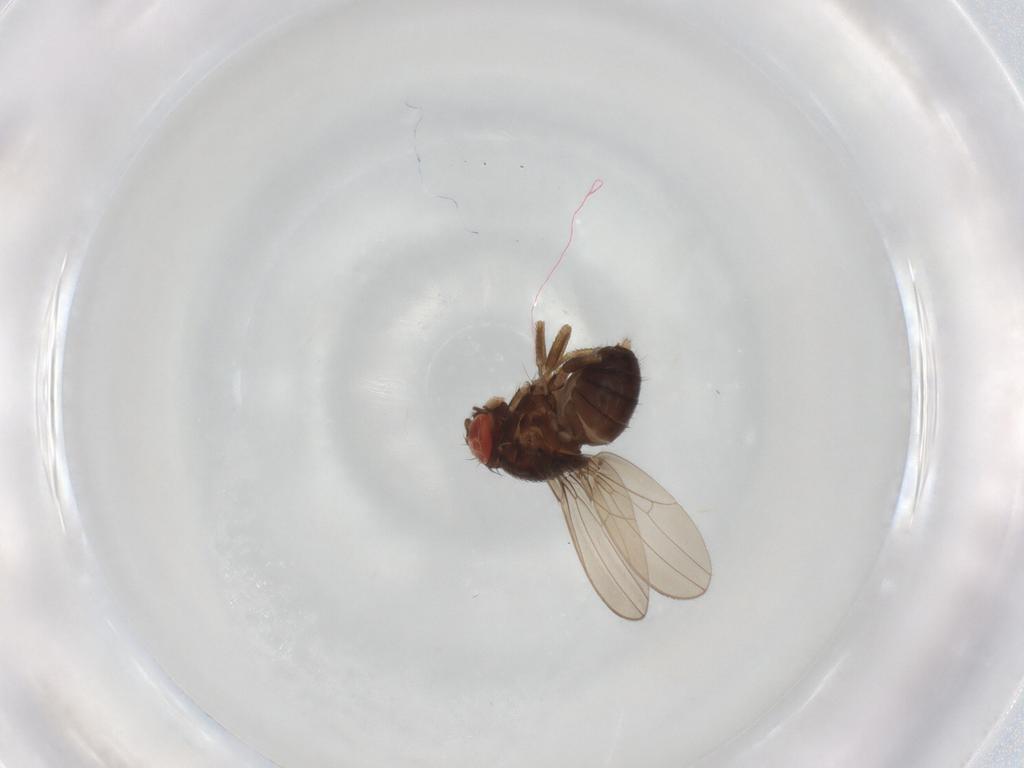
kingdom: Animalia
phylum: Arthropoda
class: Insecta
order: Diptera
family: Drosophilidae
